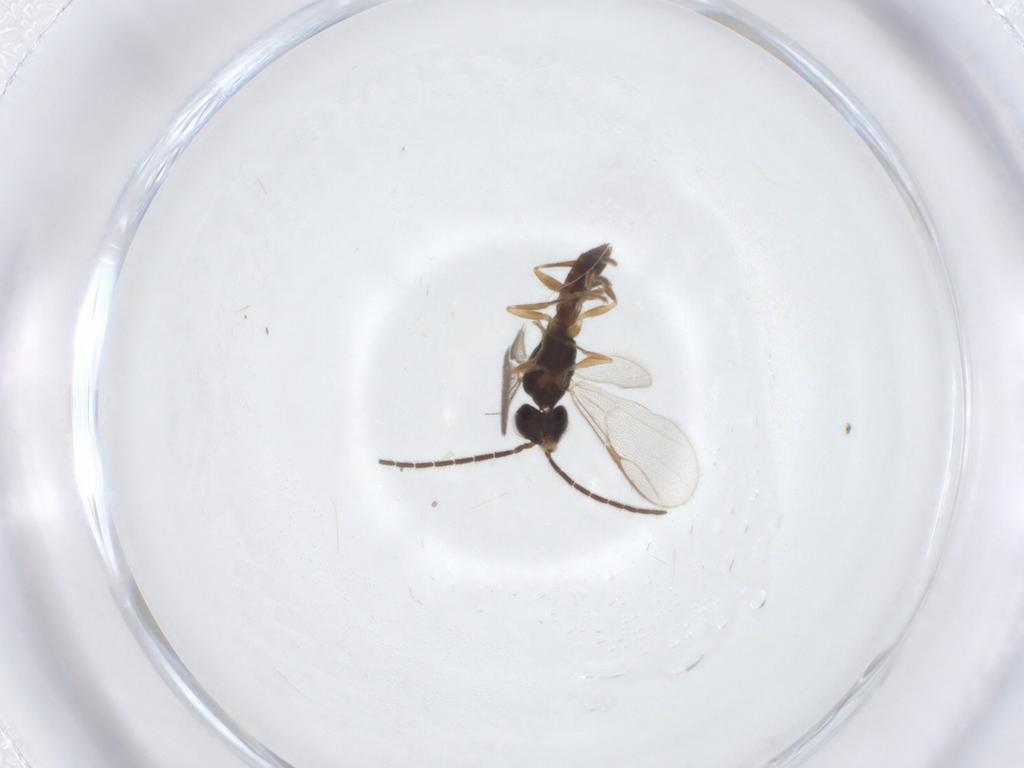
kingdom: Animalia
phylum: Arthropoda
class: Insecta
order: Hymenoptera
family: Dryinidae
